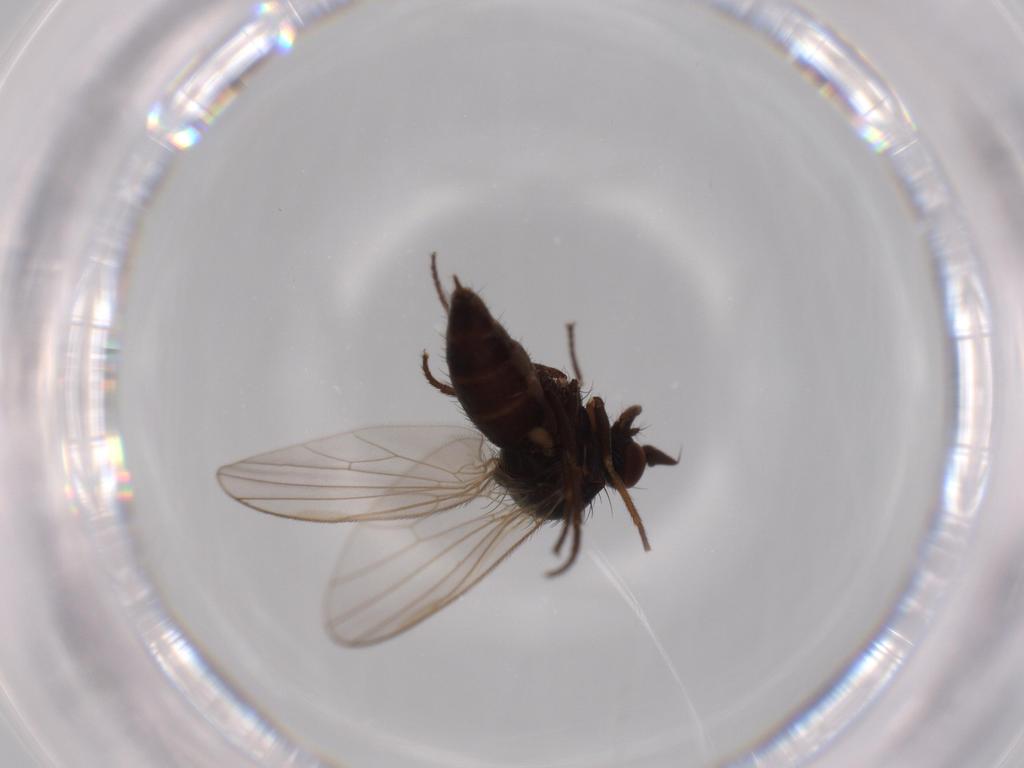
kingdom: Animalia
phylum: Arthropoda
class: Insecta
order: Diptera
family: Dolichopodidae
